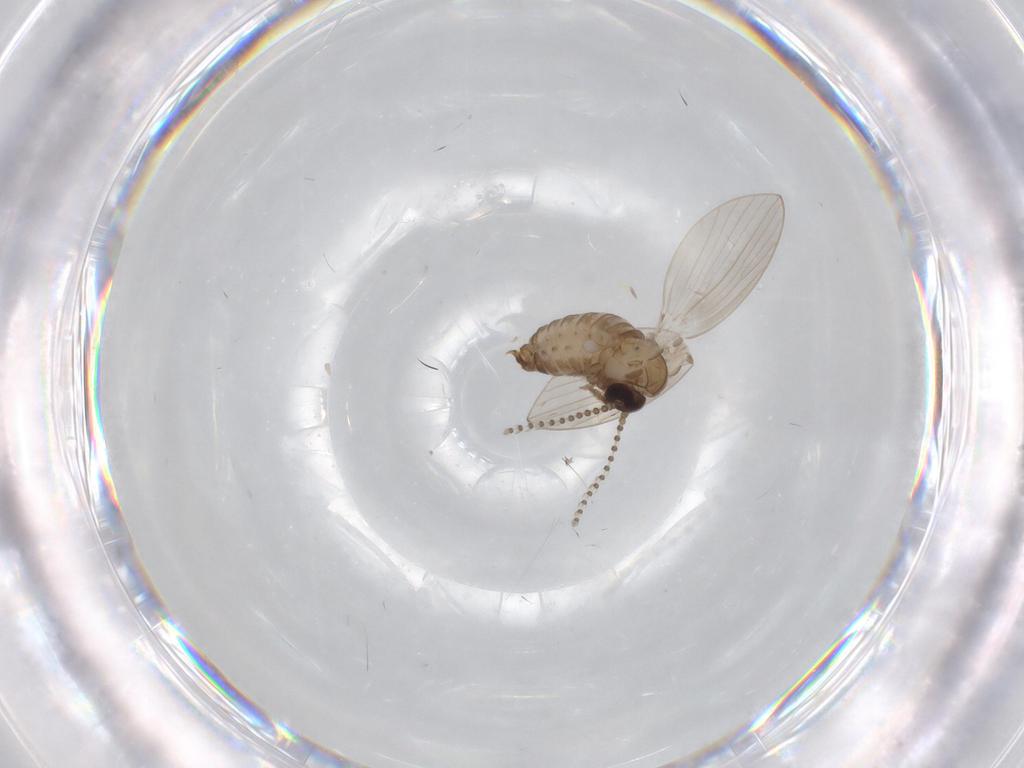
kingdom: Animalia
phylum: Arthropoda
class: Insecta
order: Diptera
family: Psychodidae
